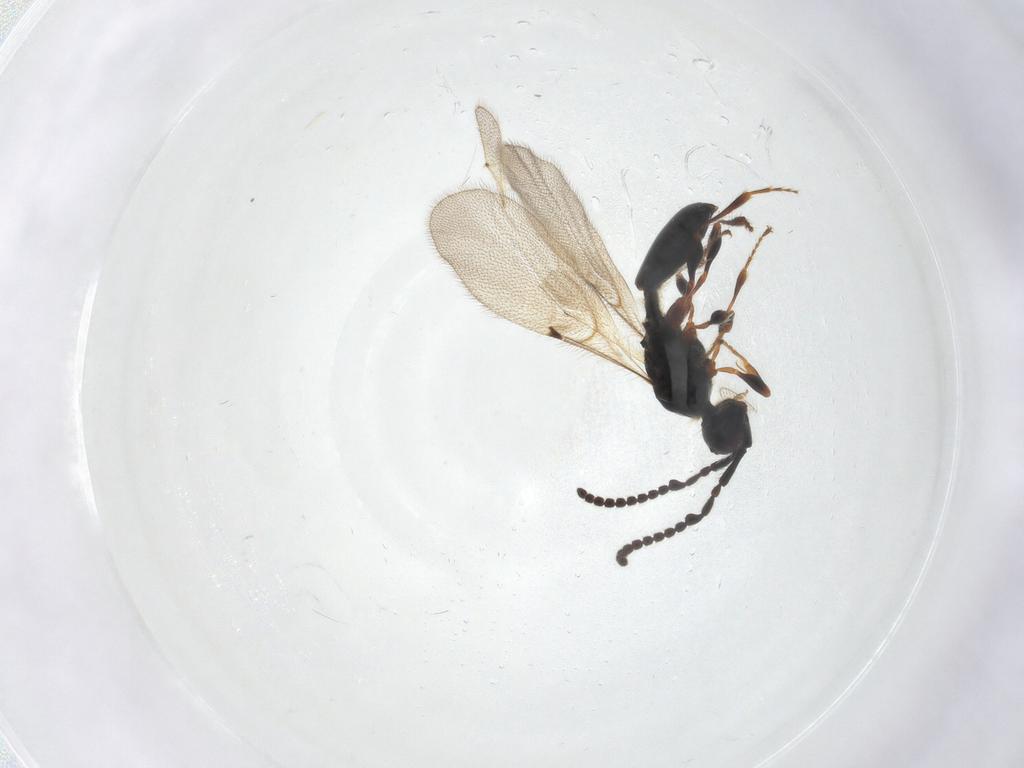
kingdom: Animalia
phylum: Arthropoda
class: Insecta
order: Hymenoptera
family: Diapriidae
